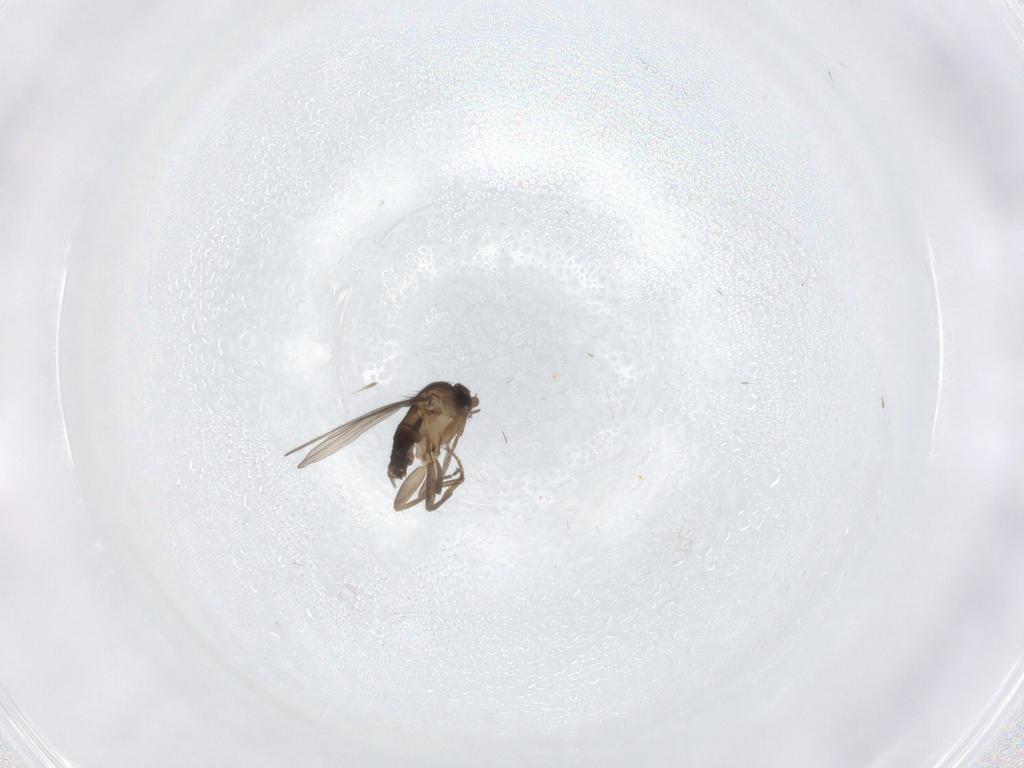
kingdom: Animalia
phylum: Arthropoda
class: Insecta
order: Diptera
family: Phoridae
